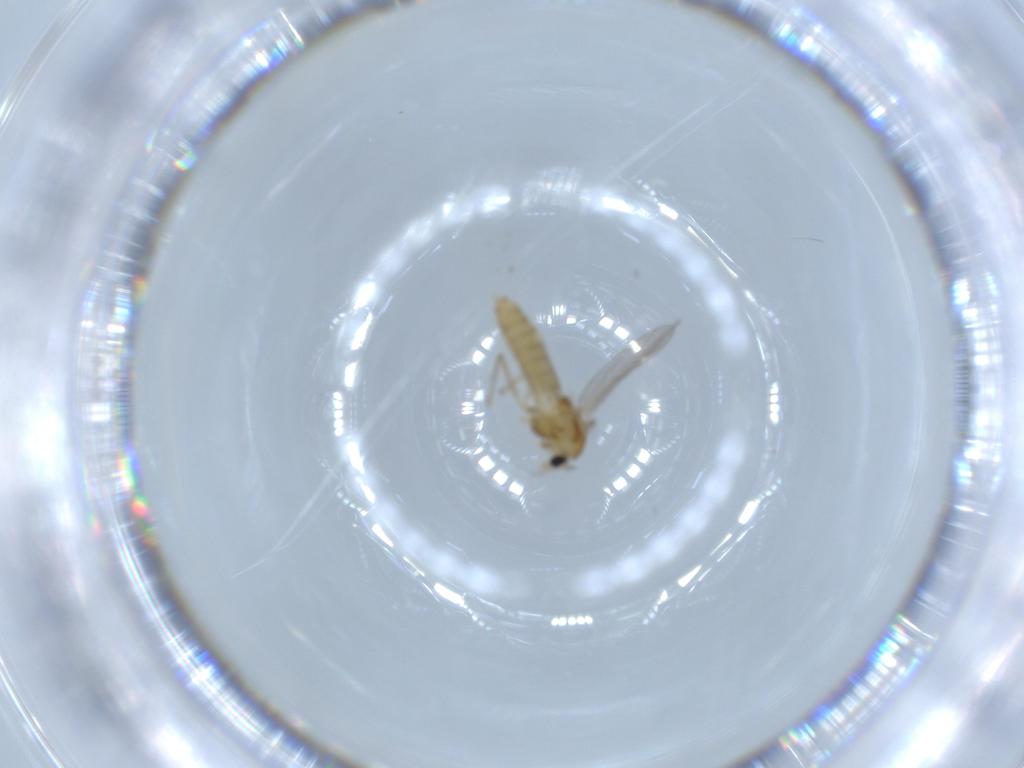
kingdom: Animalia
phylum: Arthropoda
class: Insecta
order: Diptera
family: Chironomidae
